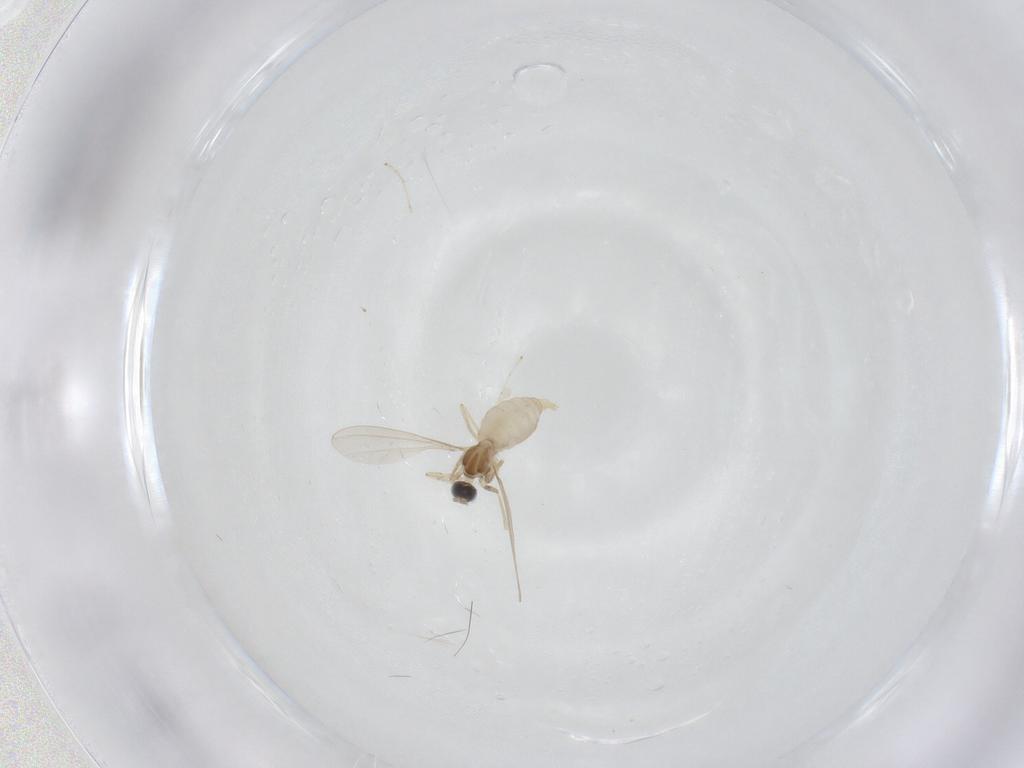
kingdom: Animalia
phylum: Arthropoda
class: Insecta
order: Diptera
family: Cecidomyiidae
